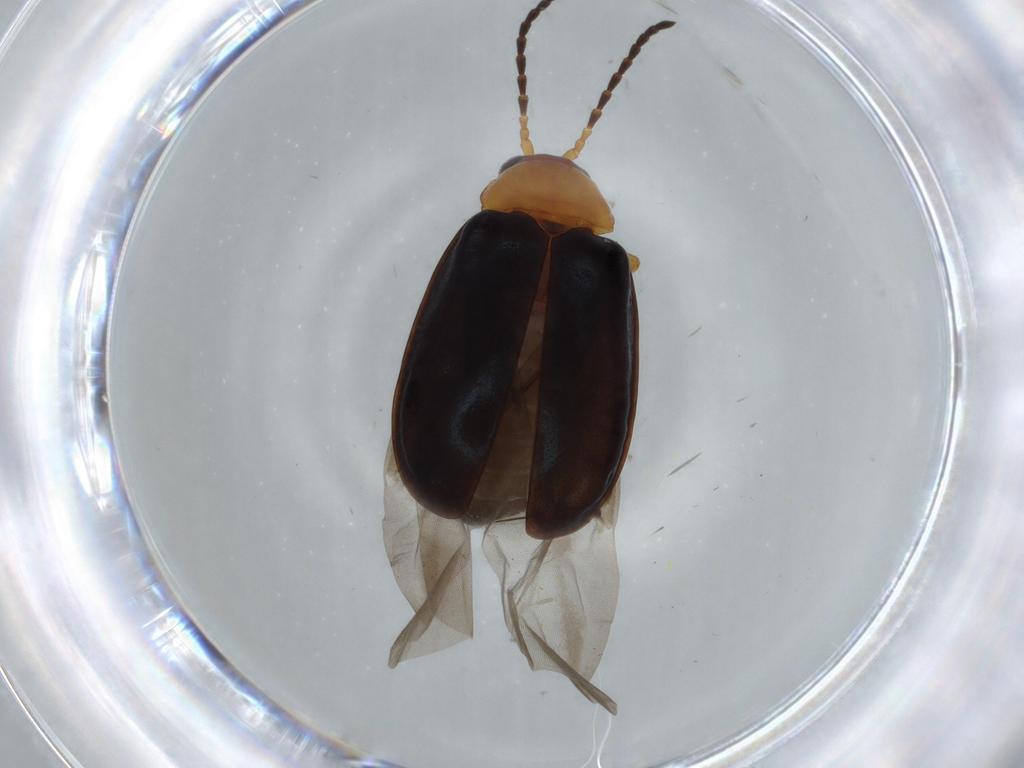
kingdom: Animalia
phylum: Arthropoda
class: Insecta
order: Coleoptera
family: Chrysomelidae
